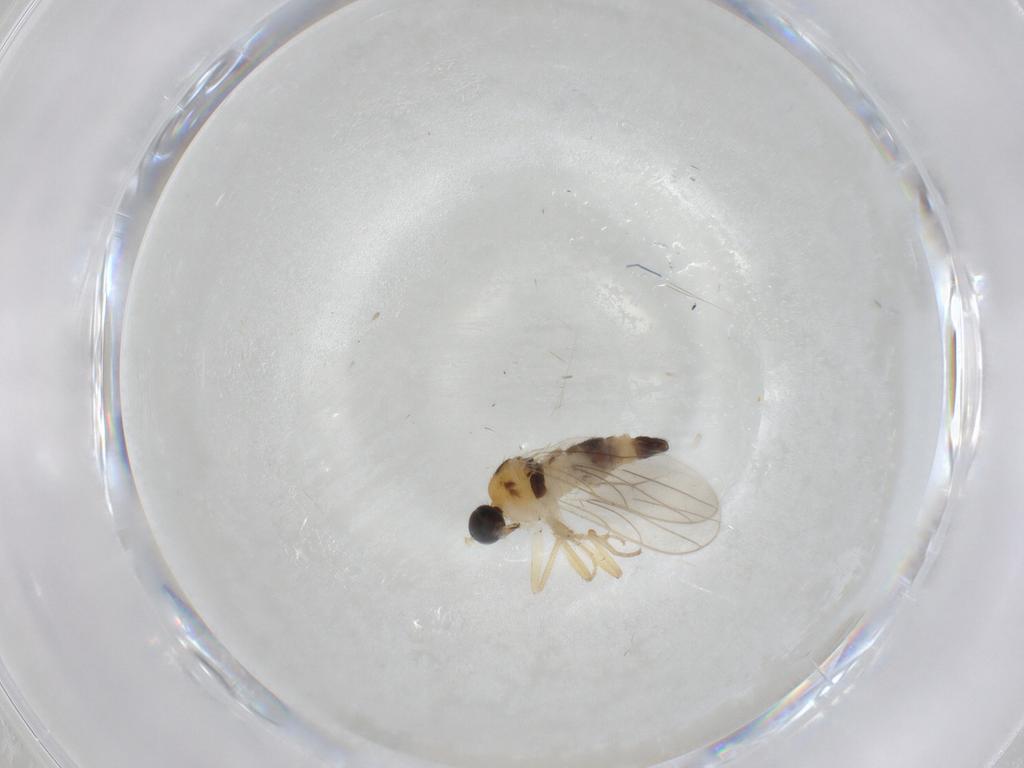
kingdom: Animalia
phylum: Arthropoda
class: Insecta
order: Diptera
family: Hybotidae
